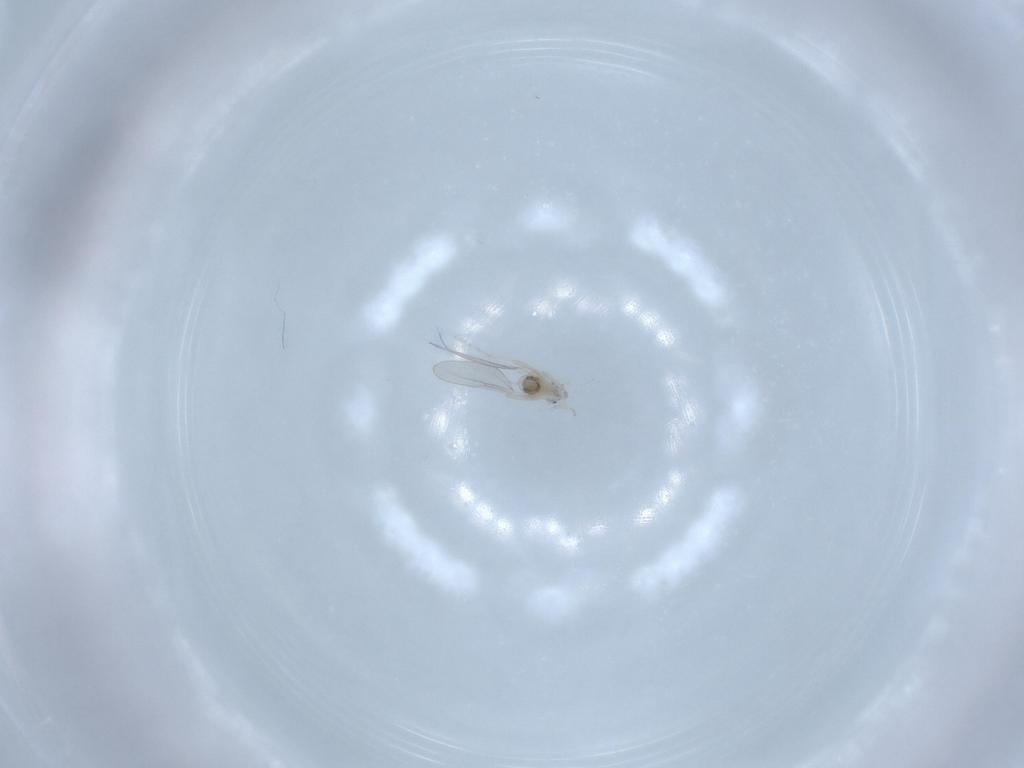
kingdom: Animalia
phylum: Arthropoda
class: Insecta
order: Diptera
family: Cecidomyiidae
